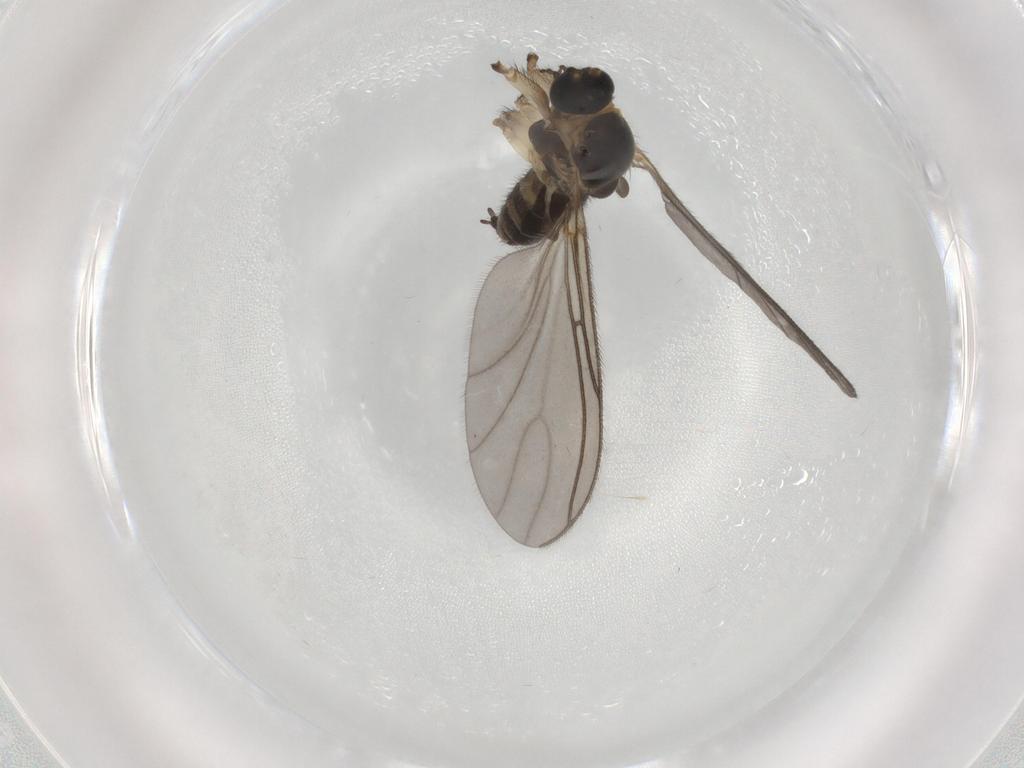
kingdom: Animalia
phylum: Arthropoda
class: Insecta
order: Diptera
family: Sciaridae
